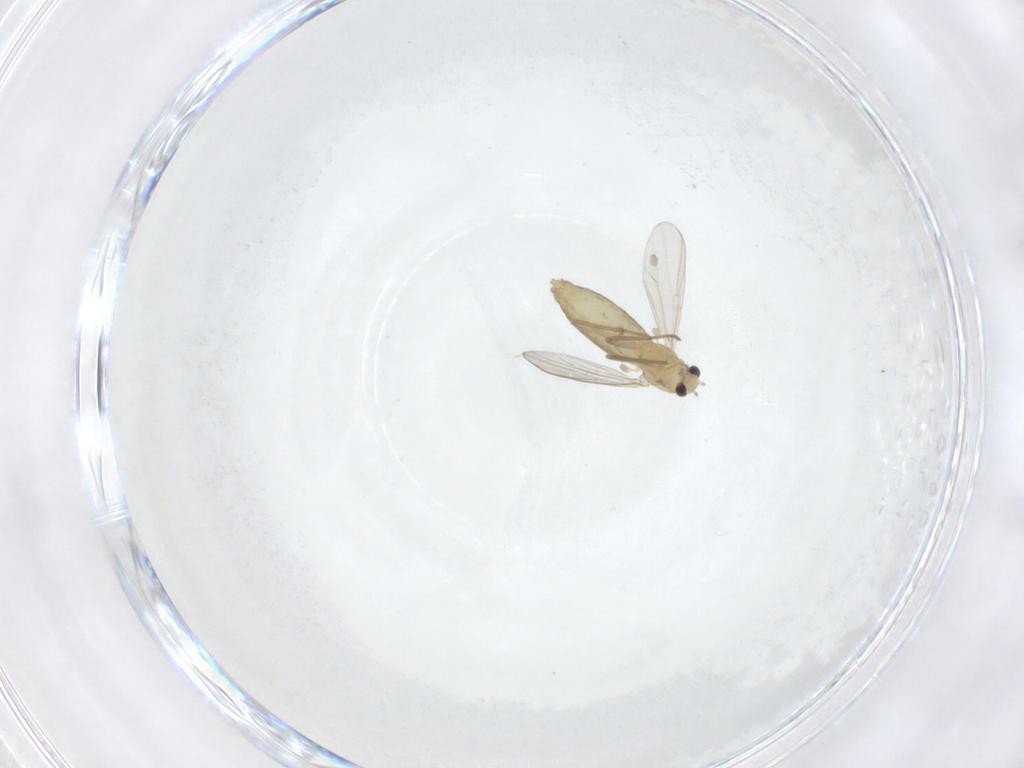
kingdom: Animalia
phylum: Arthropoda
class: Insecta
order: Diptera
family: Chironomidae
